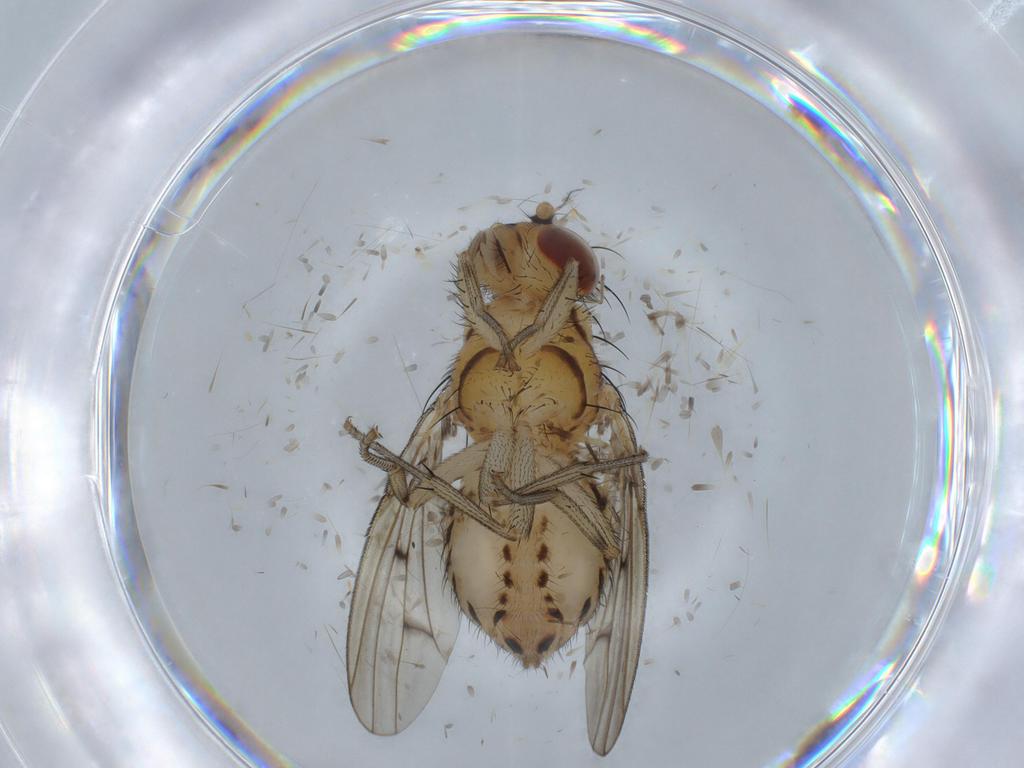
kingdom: Animalia
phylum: Arthropoda
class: Insecta
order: Diptera
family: Lauxaniidae
